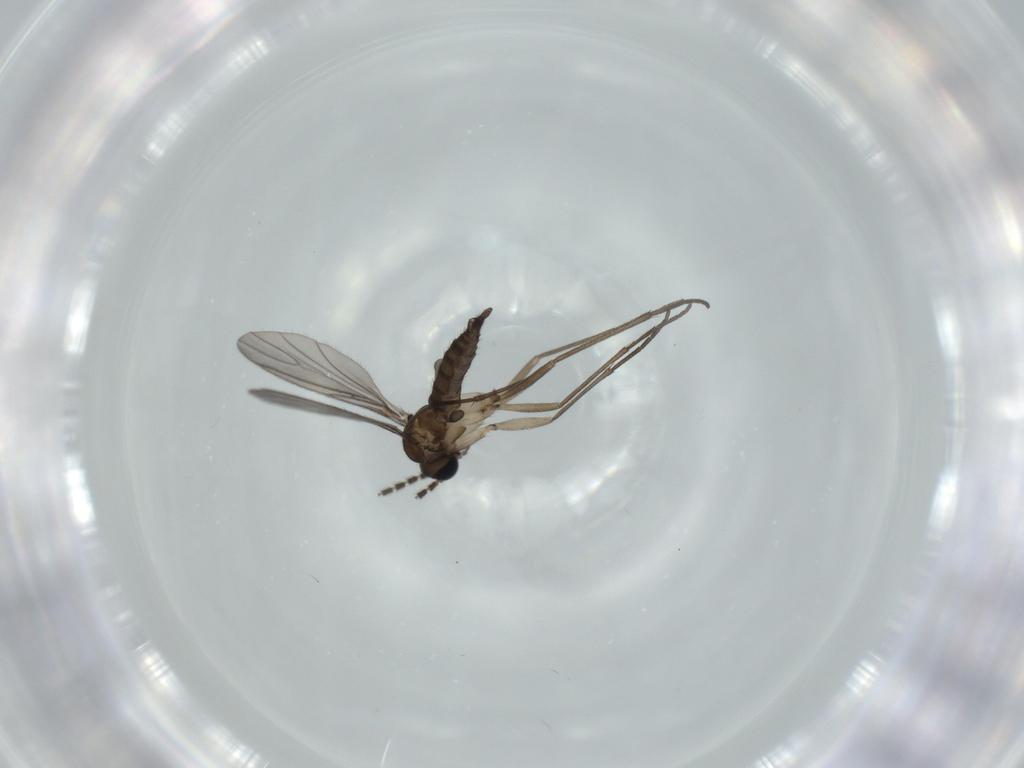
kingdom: Animalia
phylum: Arthropoda
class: Insecta
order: Diptera
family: Sciaridae
